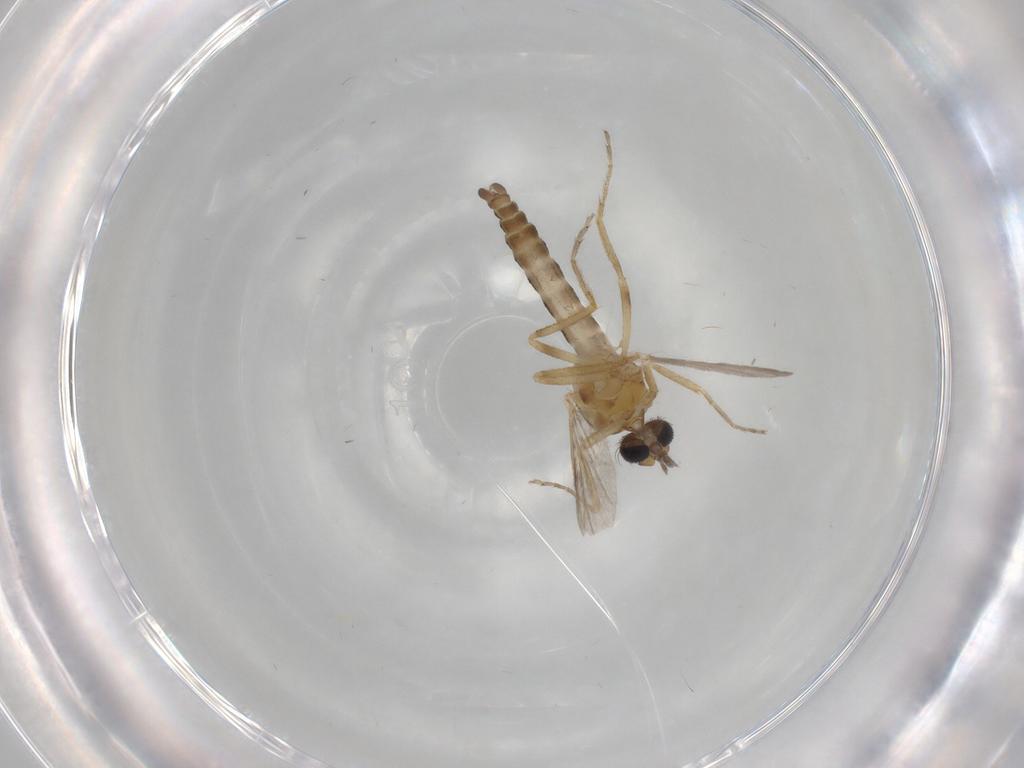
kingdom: Animalia
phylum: Arthropoda
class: Insecta
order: Diptera
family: Ceratopogonidae
